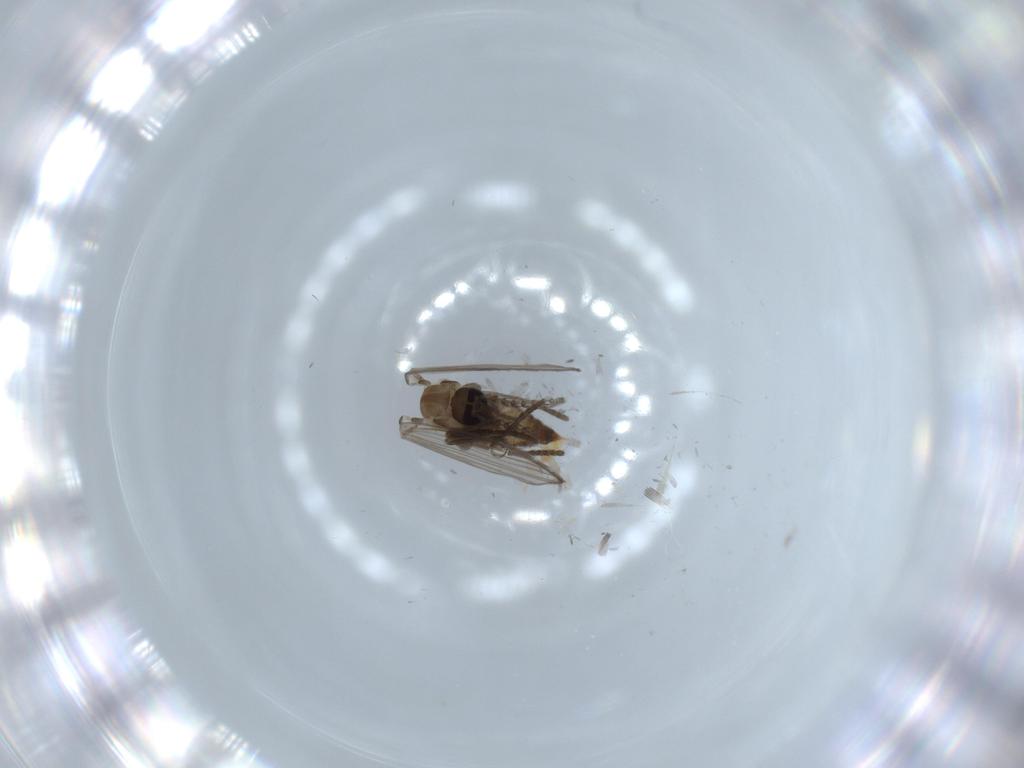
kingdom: Animalia
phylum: Arthropoda
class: Insecta
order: Diptera
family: Psychodidae
